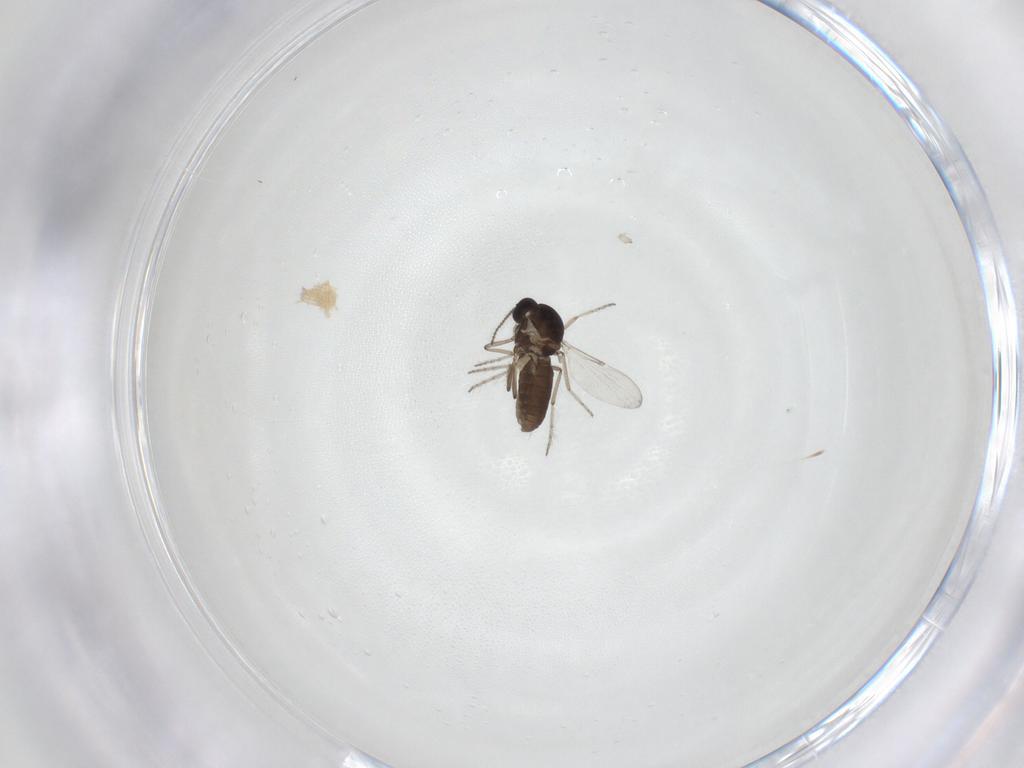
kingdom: Animalia
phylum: Arthropoda
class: Insecta
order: Diptera
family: Ceratopogonidae
